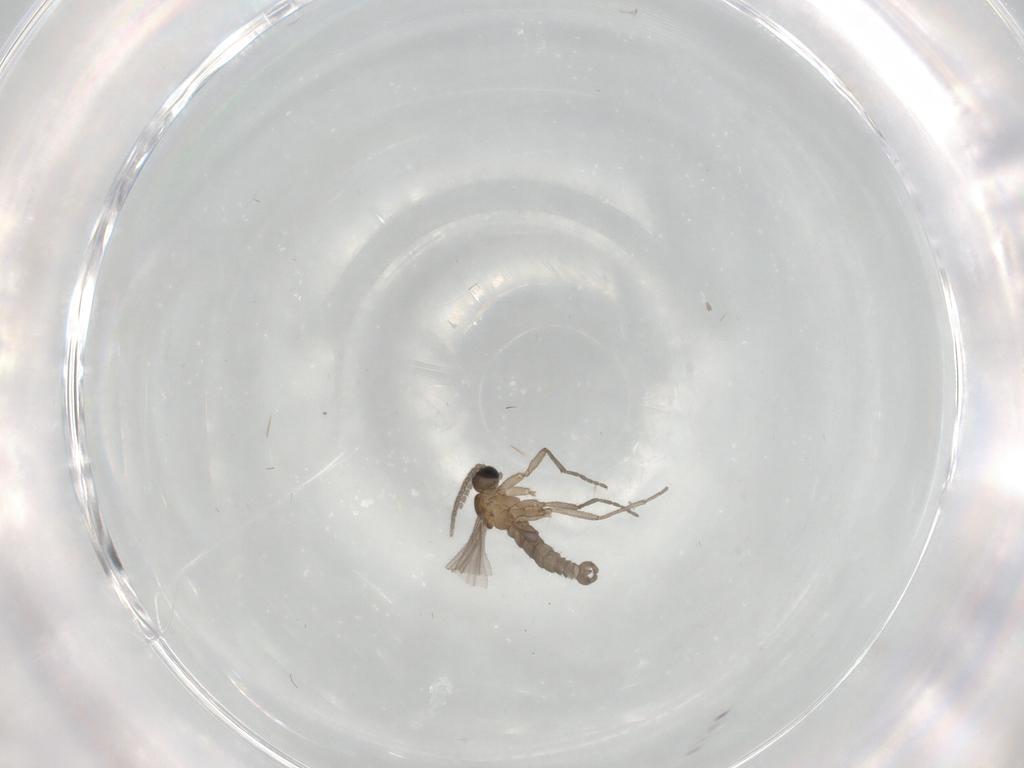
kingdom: Animalia
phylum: Arthropoda
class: Insecta
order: Diptera
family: Sciaridae
